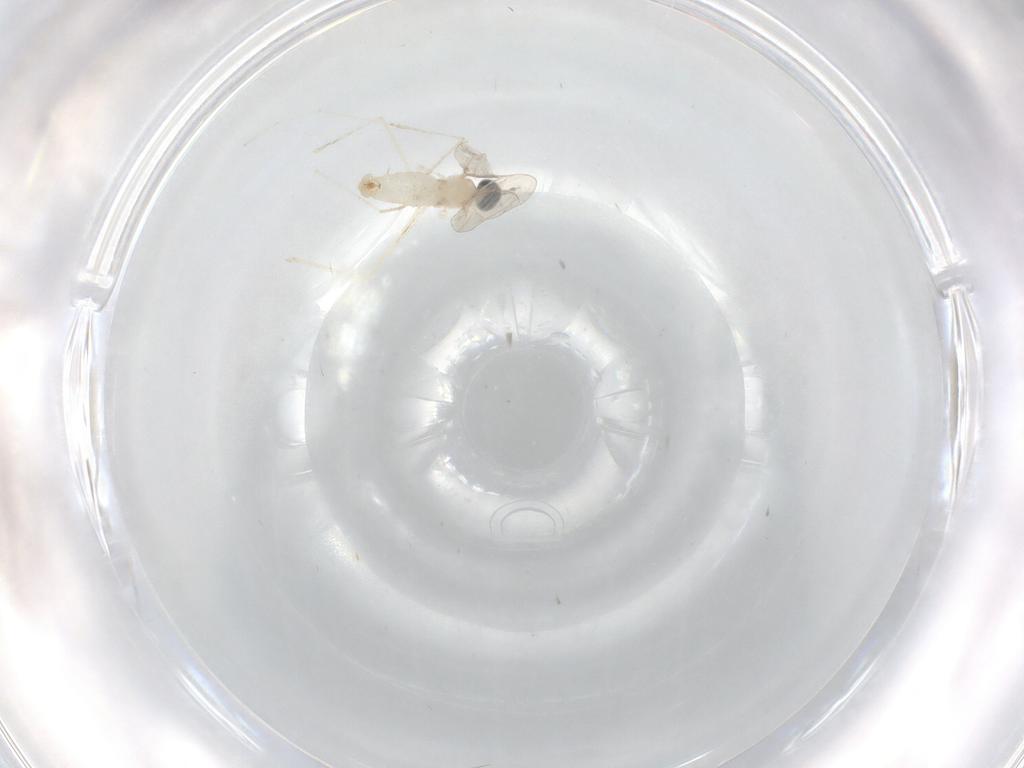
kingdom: Animalia
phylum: Arthropoda
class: Insecta
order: Diptera
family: Cecidomyiidae
